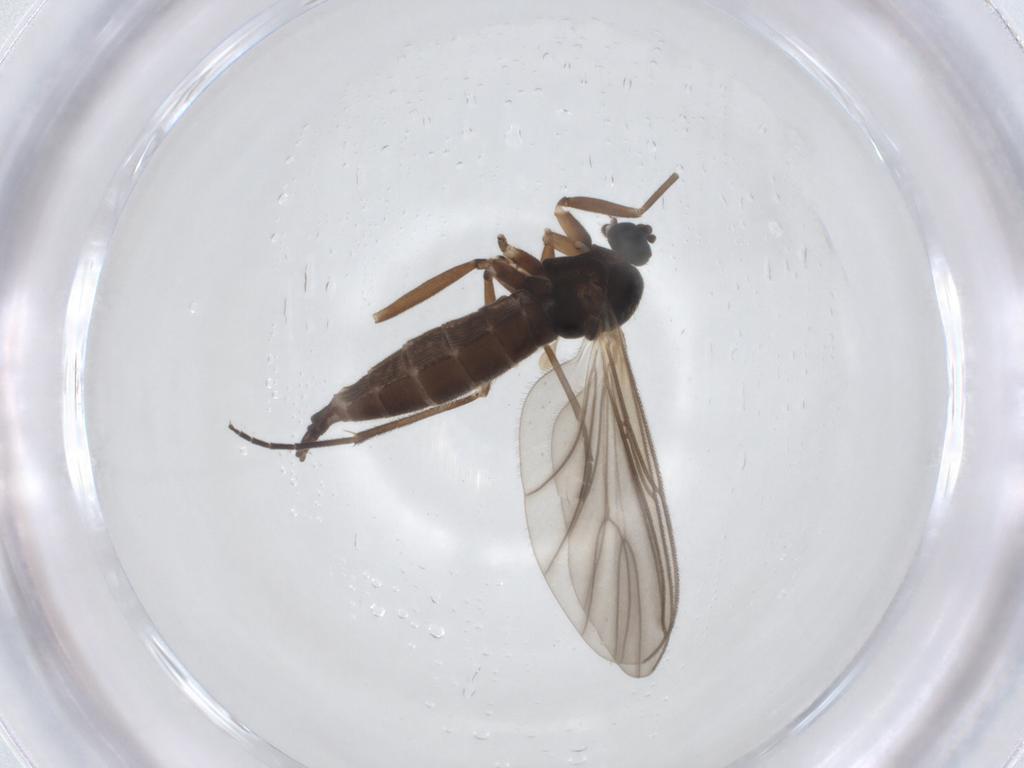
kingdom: Animalia
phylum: Arthropoda
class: Insecta
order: Diptera
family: Sciaridae
